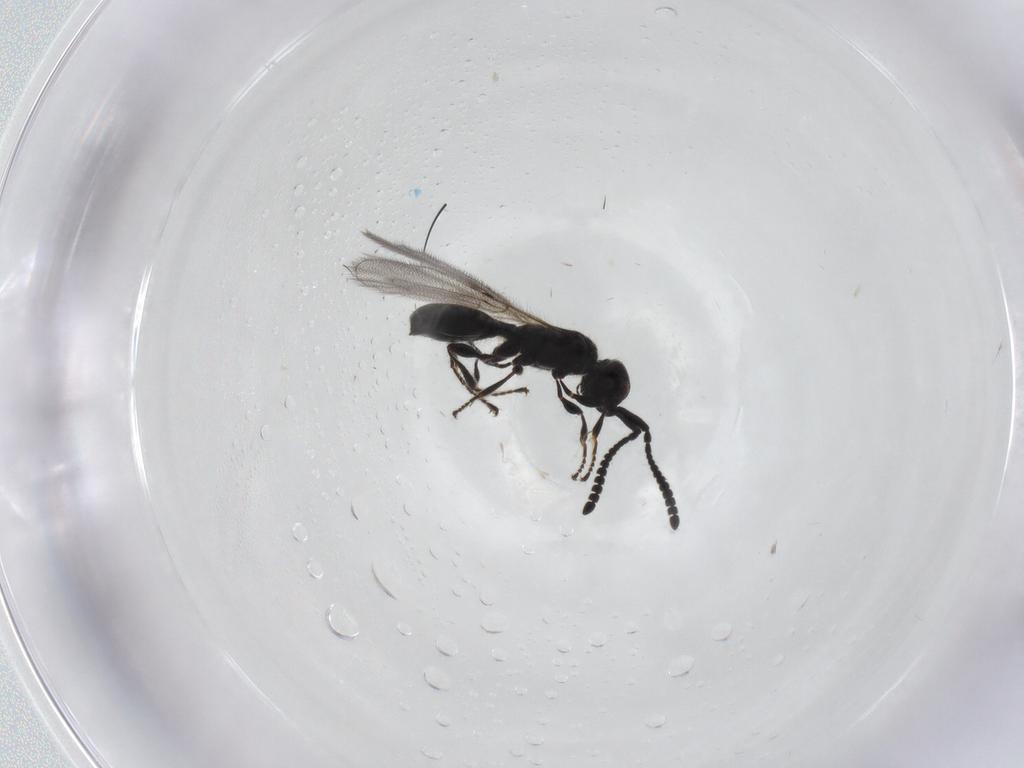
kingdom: Animalia
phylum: Arthropoda
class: Insecta
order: Hymenoptera
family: Diapriidae
